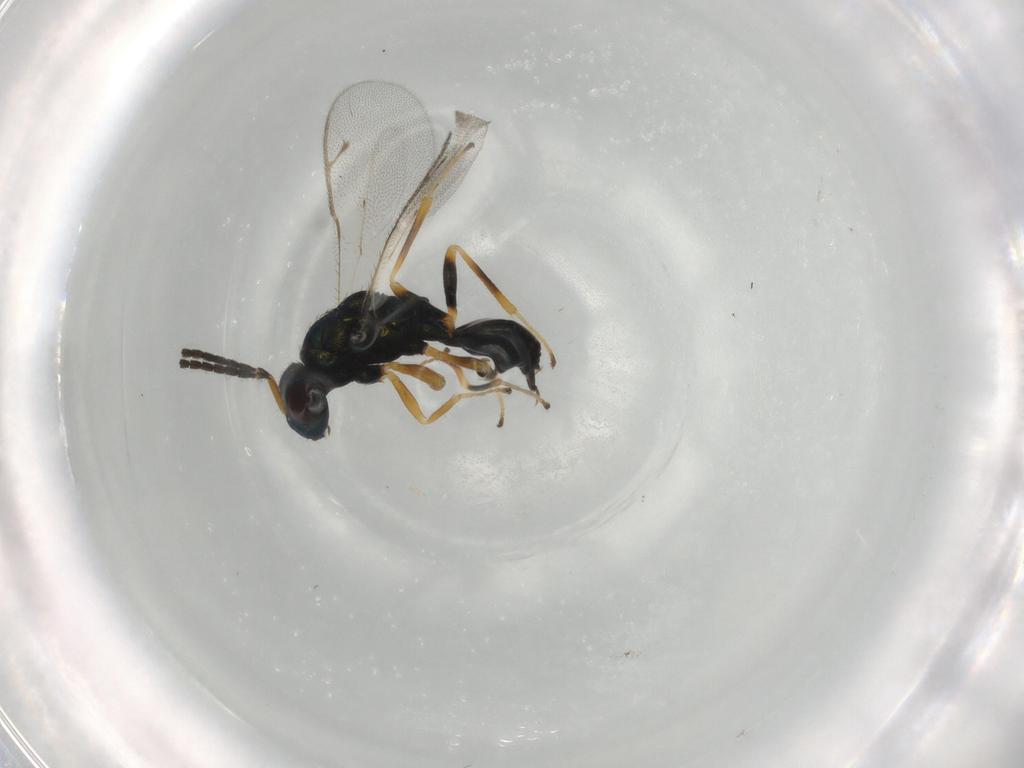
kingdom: Animalia
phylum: Arthropoda
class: Insecta
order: Hymenoptera
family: Pteromalidae
